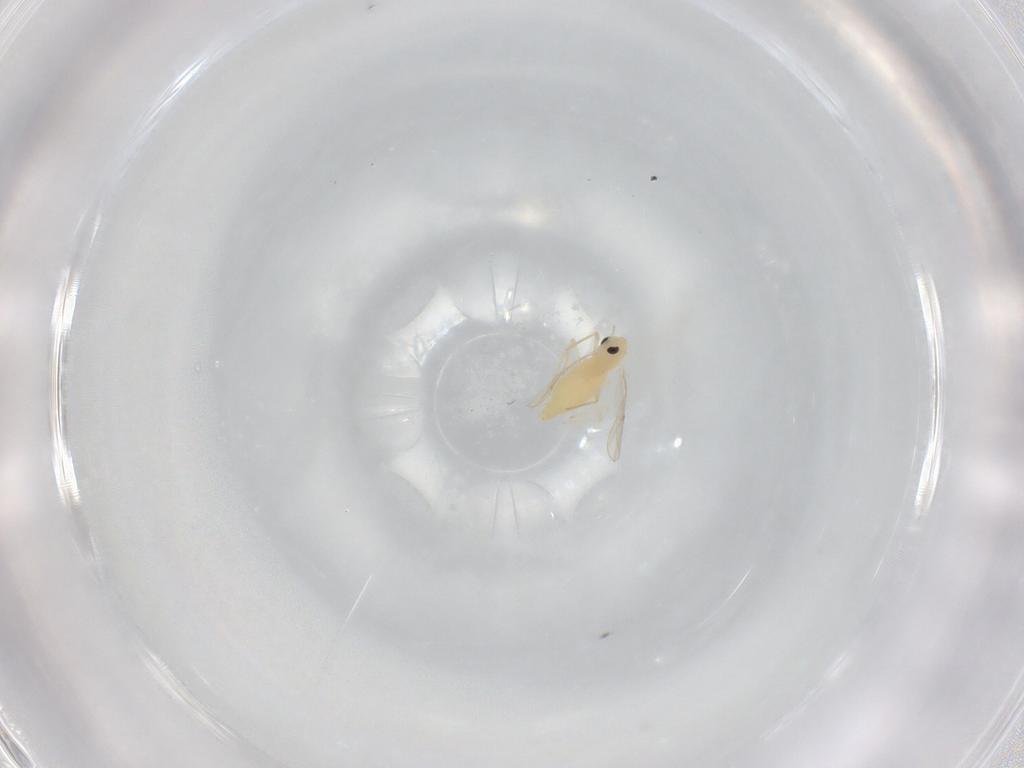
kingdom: Animalia
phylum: Arthropoda
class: Insecta
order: Diptera
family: Chironomidae
